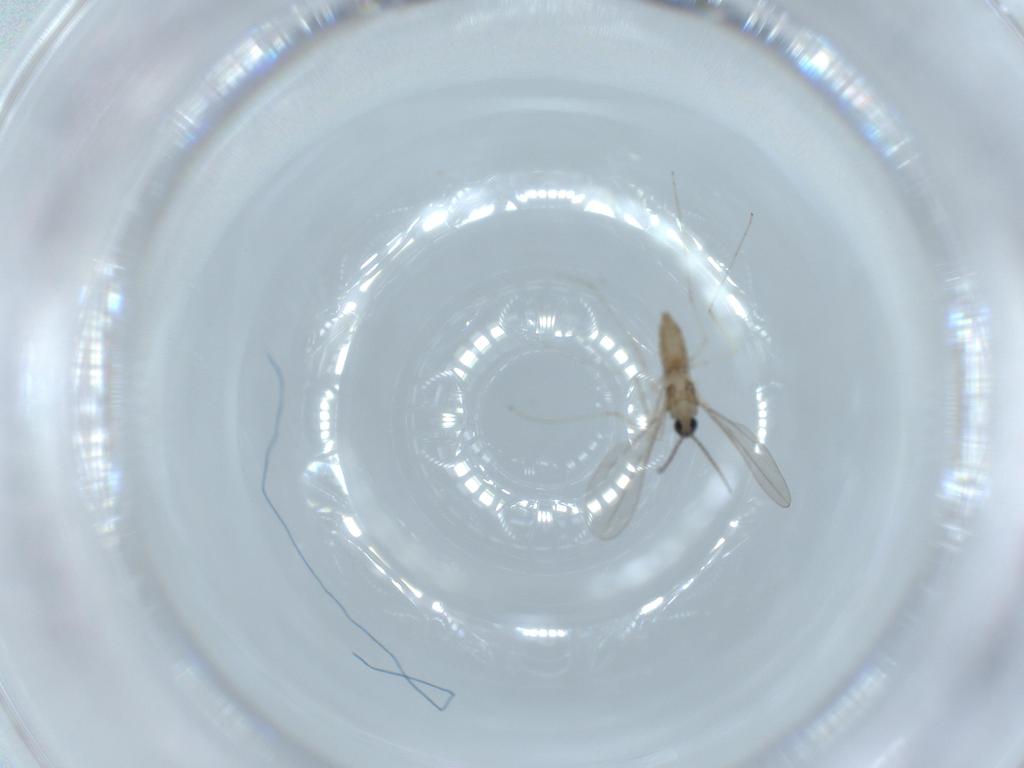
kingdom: Animalia
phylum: Arthropoda
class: Insecta
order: Diptera
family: Cecidomyiidae
